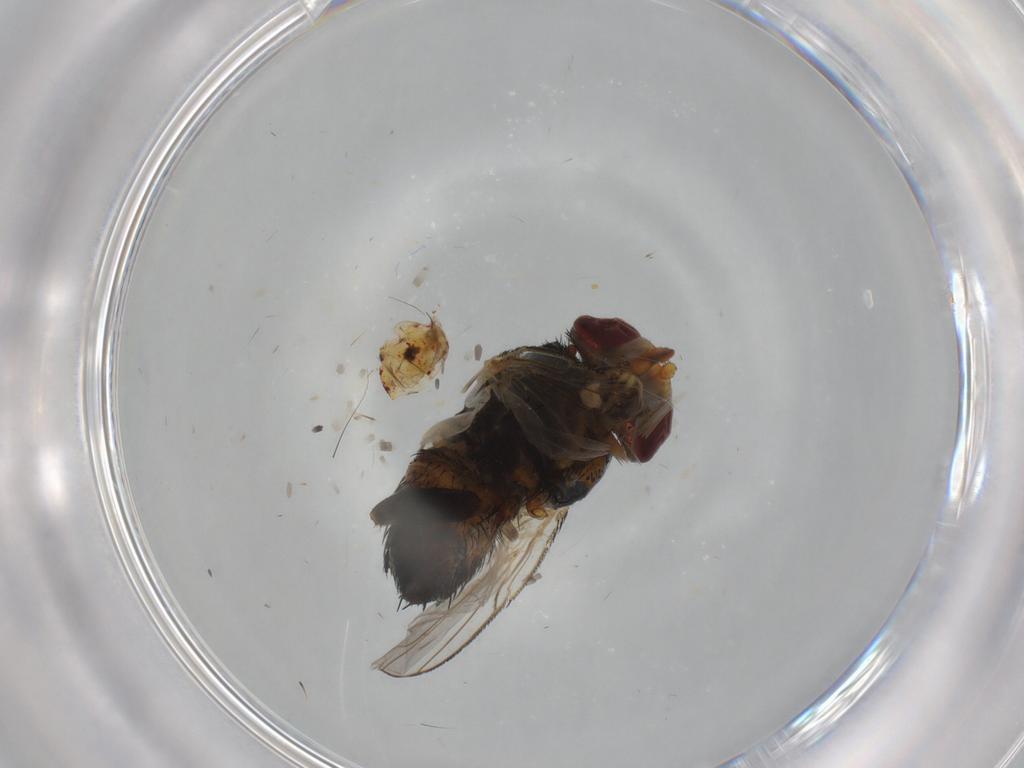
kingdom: Animalia
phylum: Arthropoda
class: Insecta
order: Diptera
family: Tachinidae
